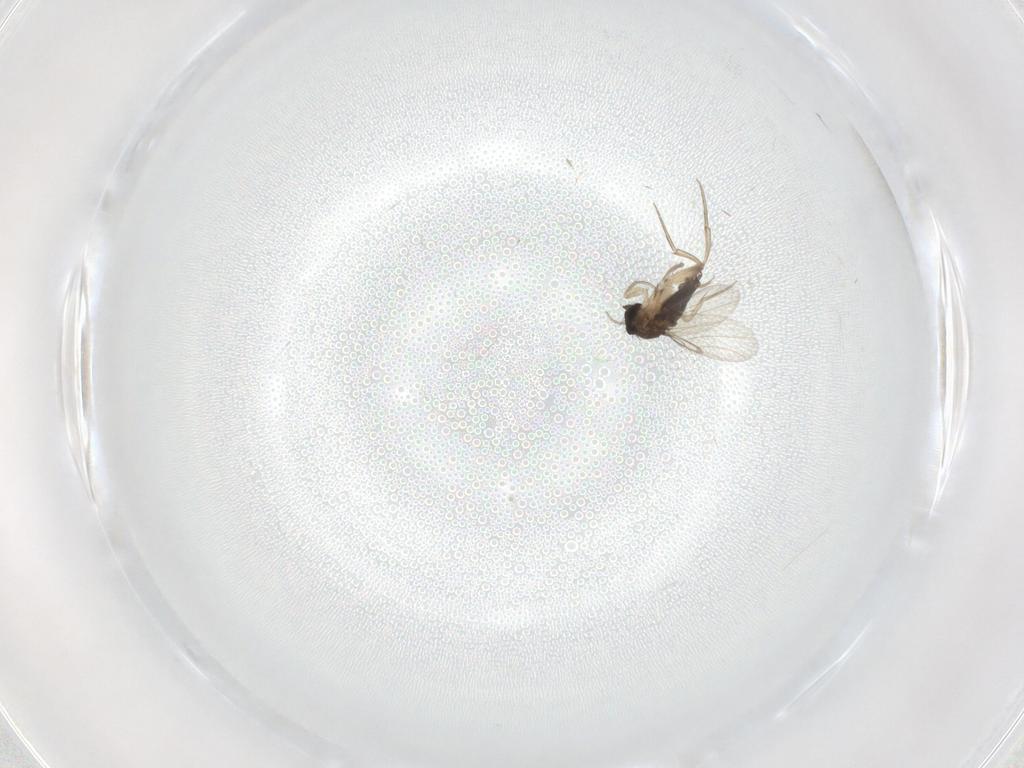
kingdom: Animalia
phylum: Arthropoda
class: Insecta
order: Diptera
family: Phoridae
